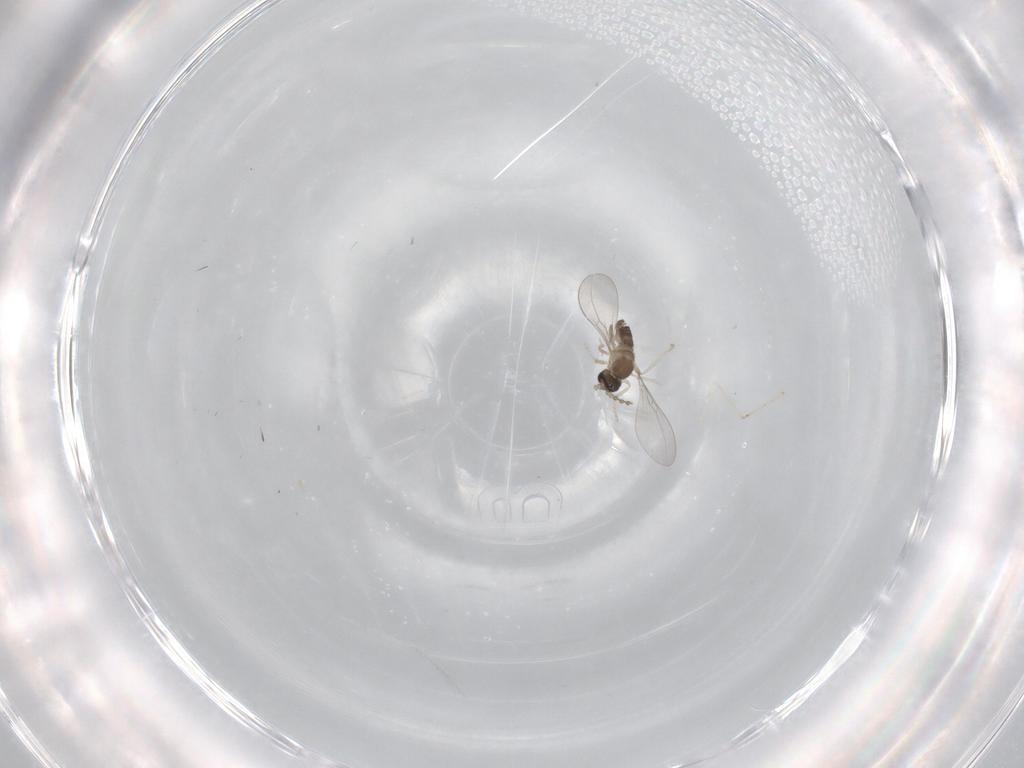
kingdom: Animalia
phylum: Arthropoda
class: Insecta
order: Diptera
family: Cecidomyiidae
